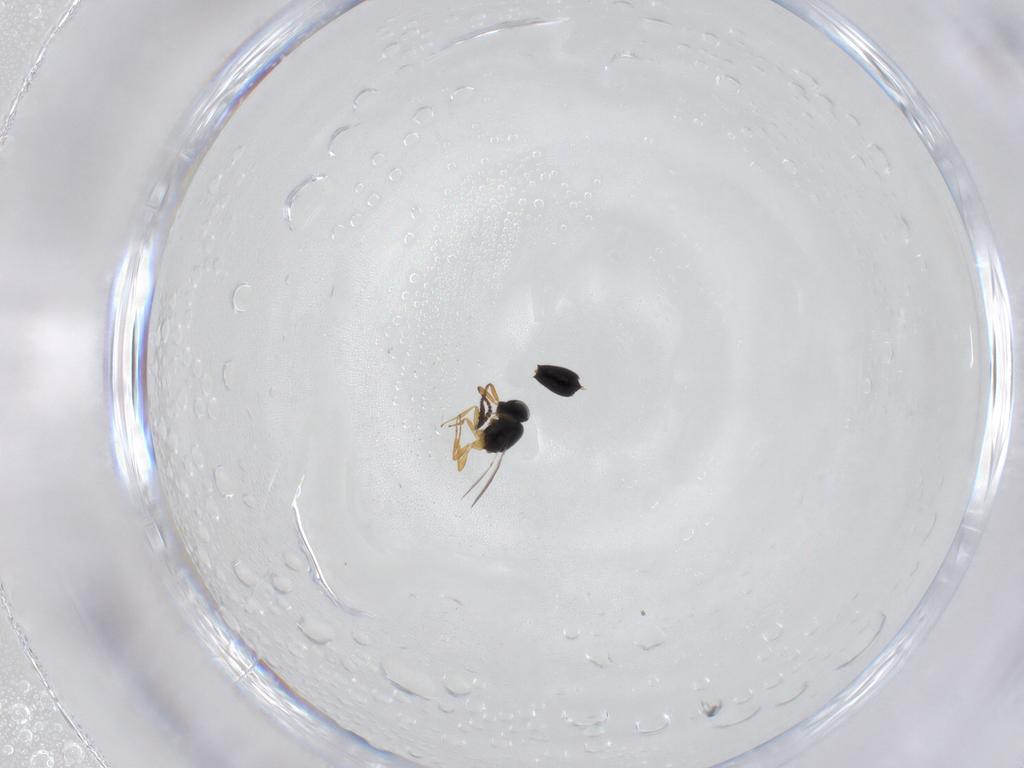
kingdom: Animalia
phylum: Arthropoda
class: Insecta
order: Hymenoptera
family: Scelionidae
